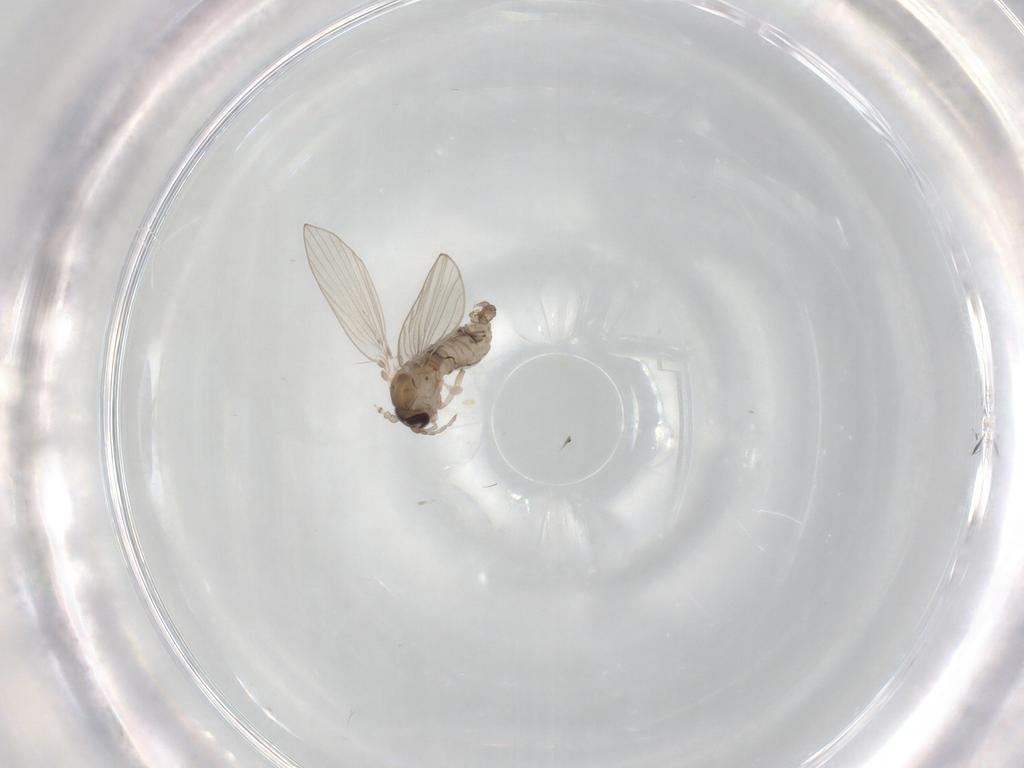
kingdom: Animalia
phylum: Arthropoda
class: Insecta
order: Diptera
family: Psychodidae
